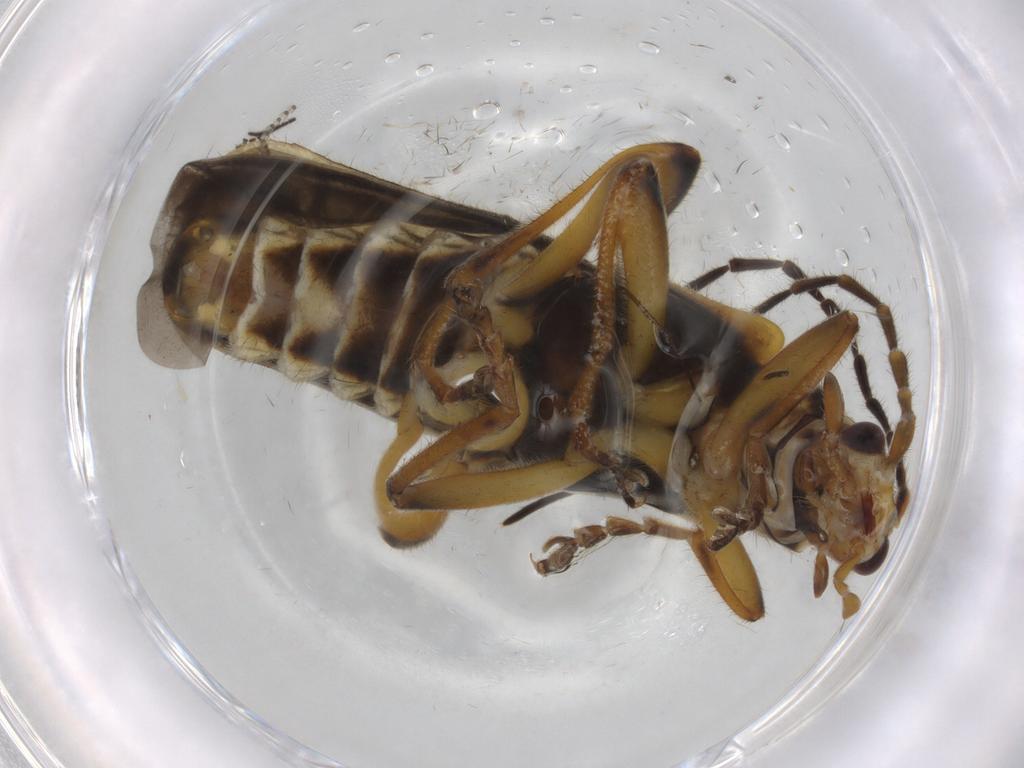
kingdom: Animalia
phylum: Arthropoda
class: Insecta
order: Coleoptera
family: Cantharidae
